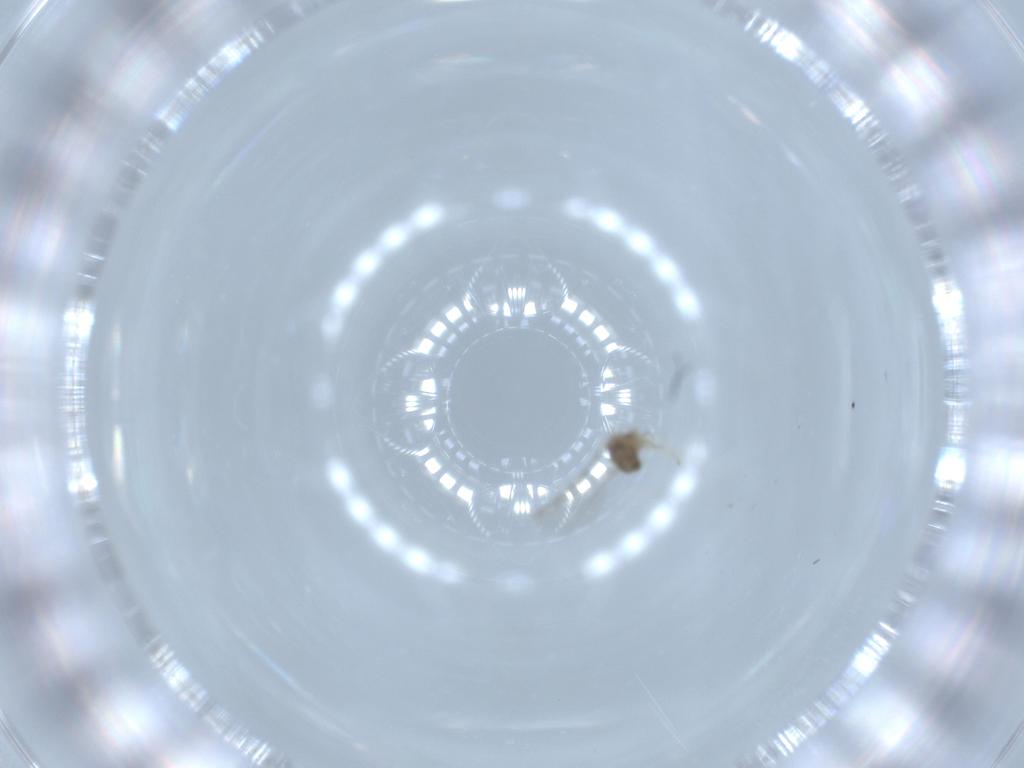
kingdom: Animalia
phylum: Arthropoda
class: Insecta
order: Diptera
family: Cecidomyiidae
